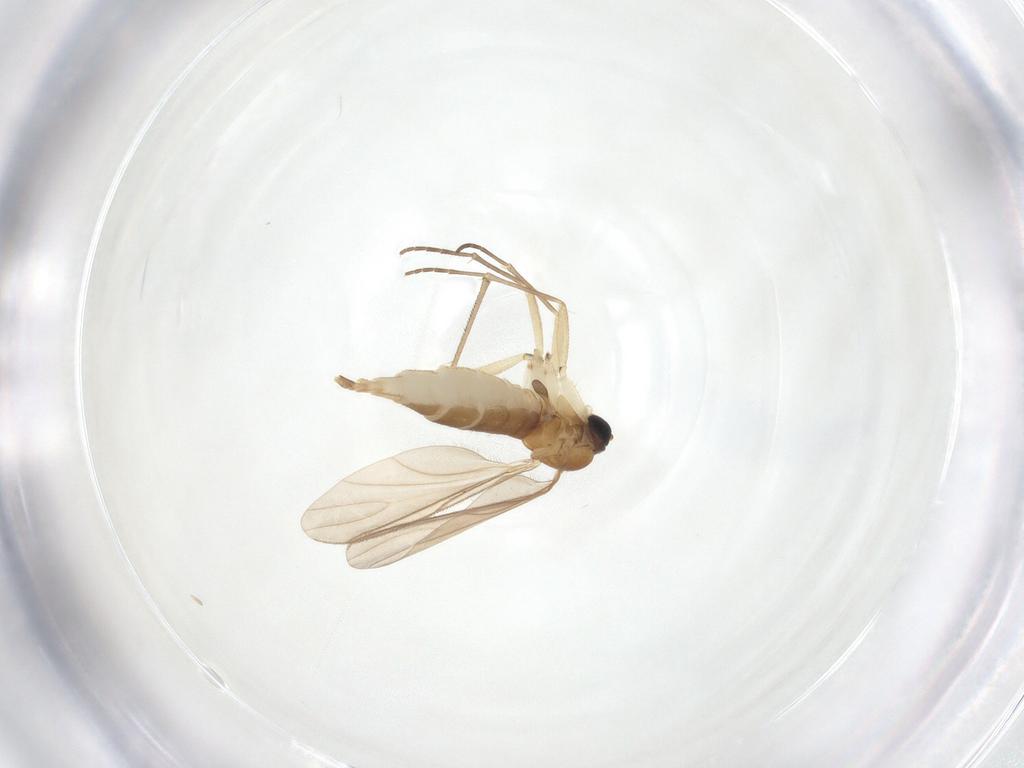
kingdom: Animalia
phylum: Arthropoda
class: Insecta
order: Diptera
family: Sciaridae
